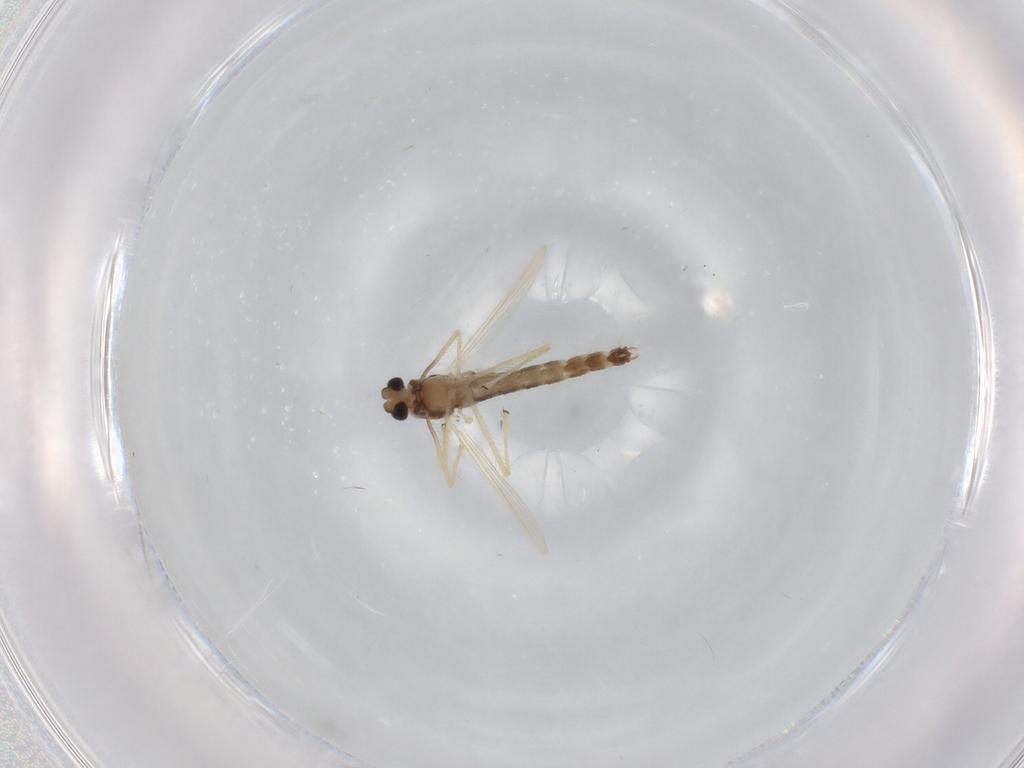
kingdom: Animalia
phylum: Arthropoda
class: Insecta
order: Diptera
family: Chironomidae
